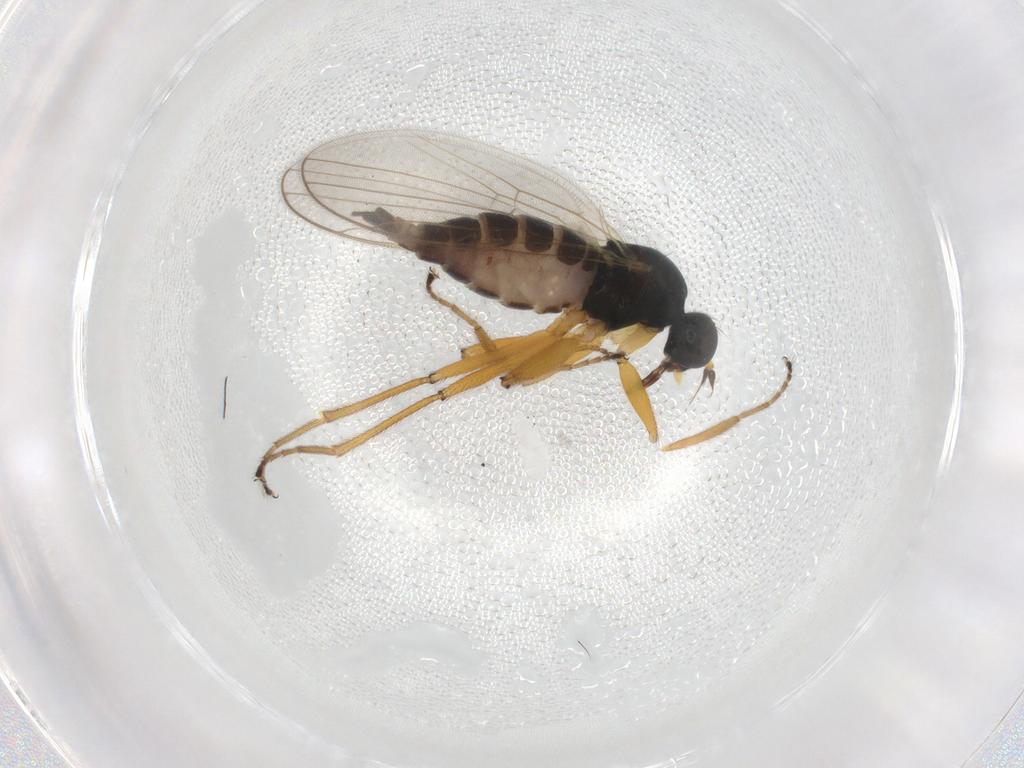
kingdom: Animalia
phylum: Arthropoda
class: Insecta
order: Diptera
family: Hybotidae
